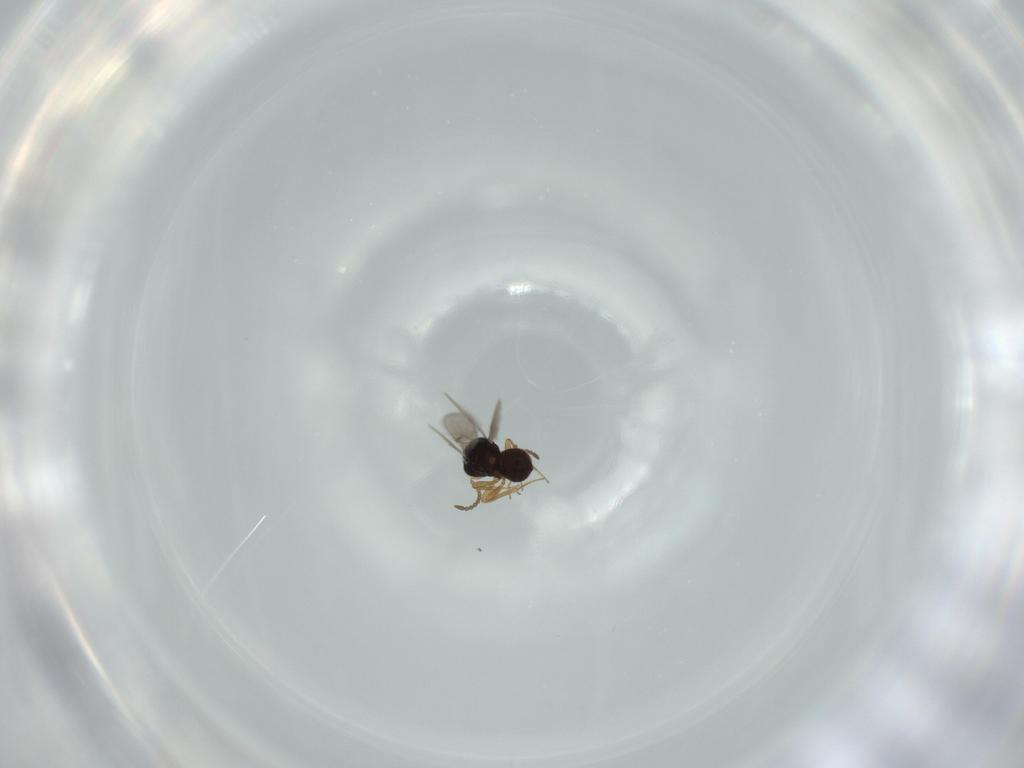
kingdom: Animalia
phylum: Arthropoda
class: Insecta
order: Hymenoptera
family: Scelionidae
